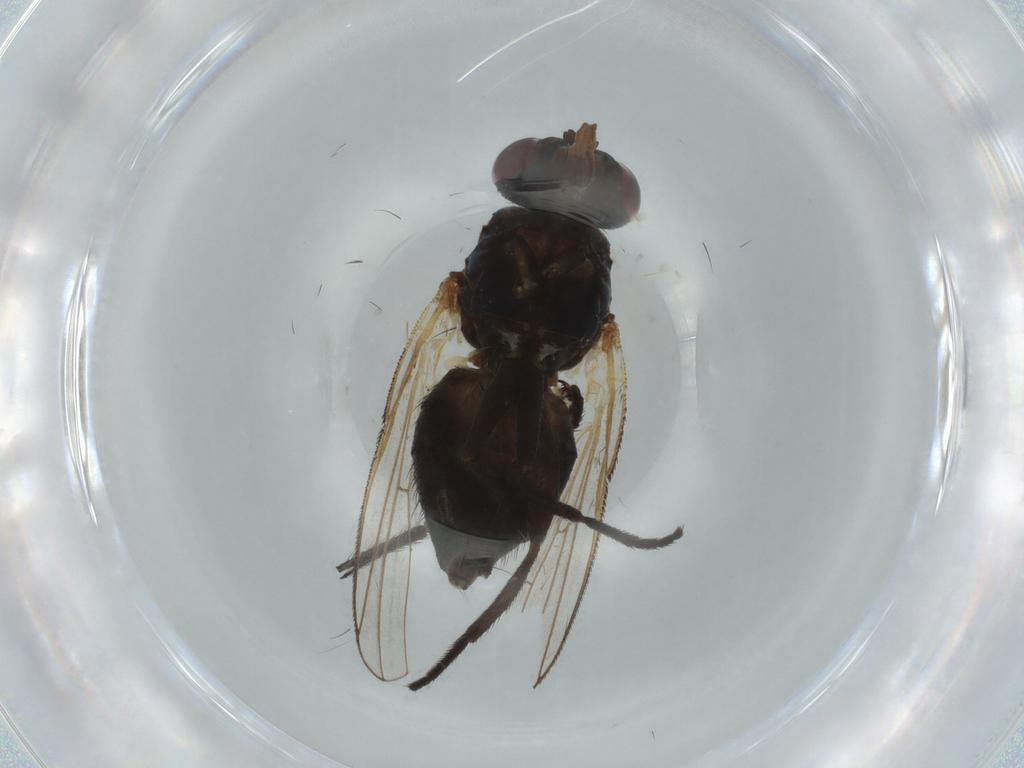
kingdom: Animalia
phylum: Arthropoda
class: Insecta
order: Diptera
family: Fannia
